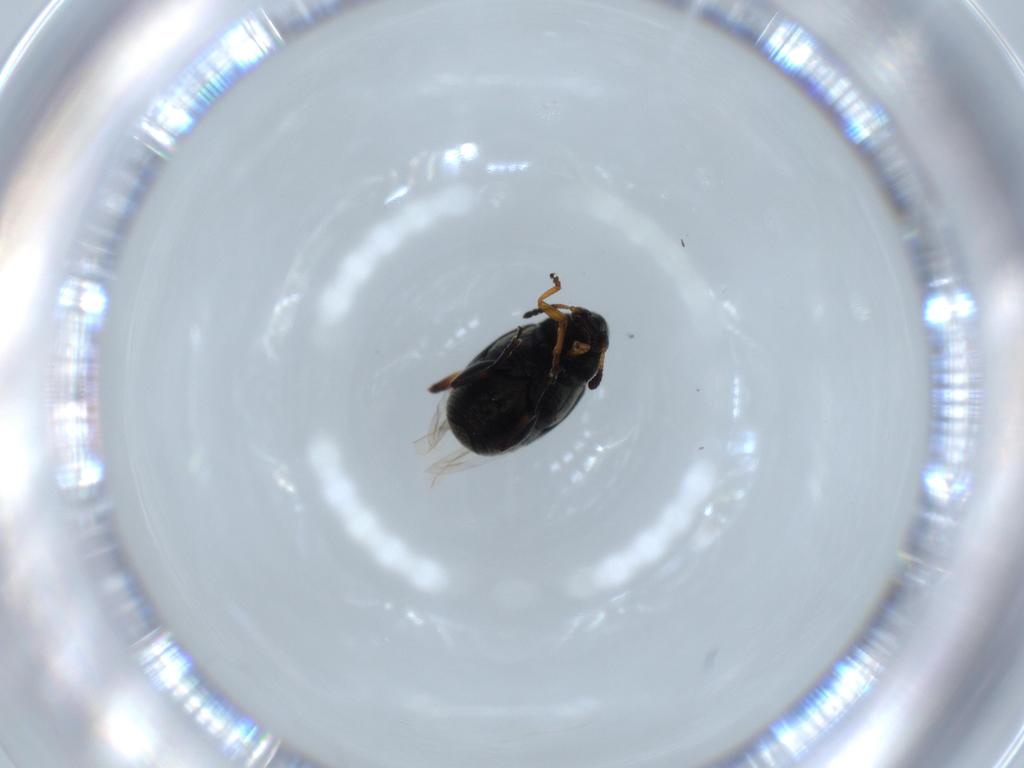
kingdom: Animalia
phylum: Arthropoda
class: Insecta
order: Coleoptera
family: Chrysomelidae
